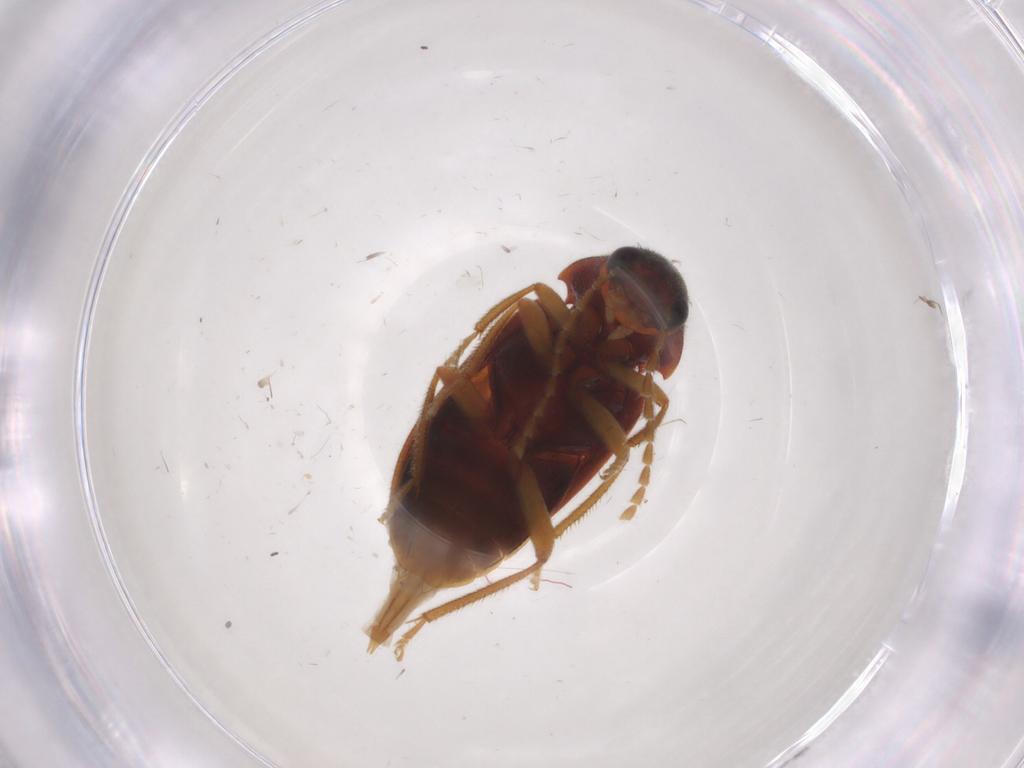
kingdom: Animalia
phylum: Arthropoda
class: Insecta
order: Coleoptera
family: Ptilodactylidae
